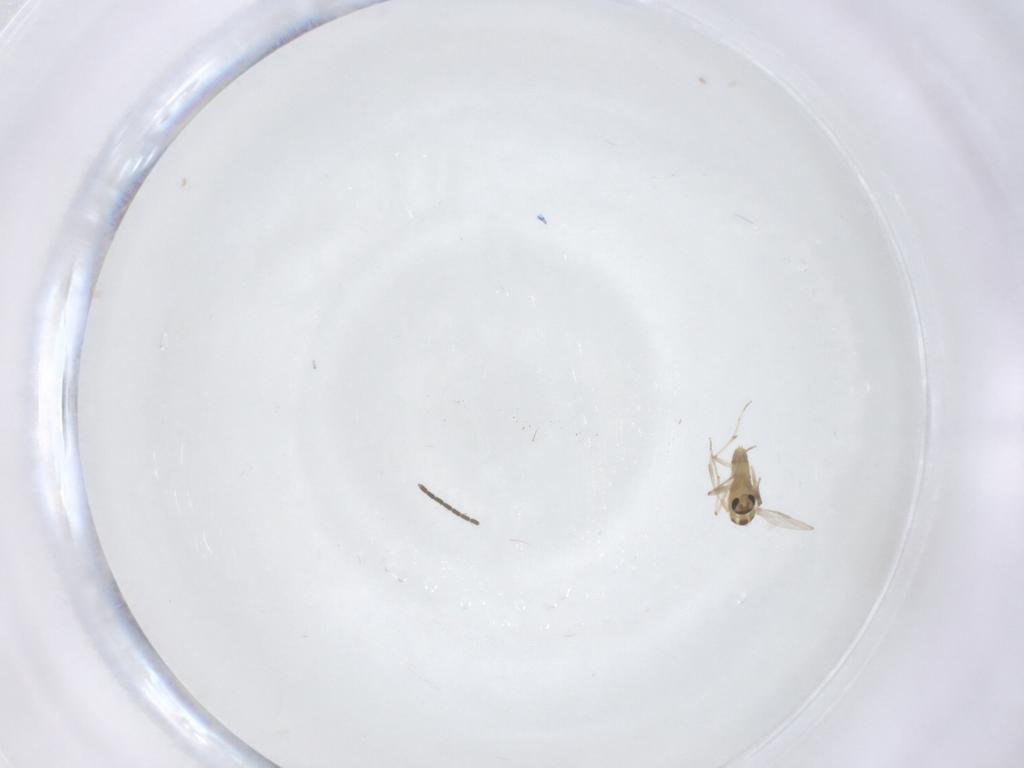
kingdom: Animalia
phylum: Arthropoda
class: Insecta
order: Diptera
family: Chironomidae
